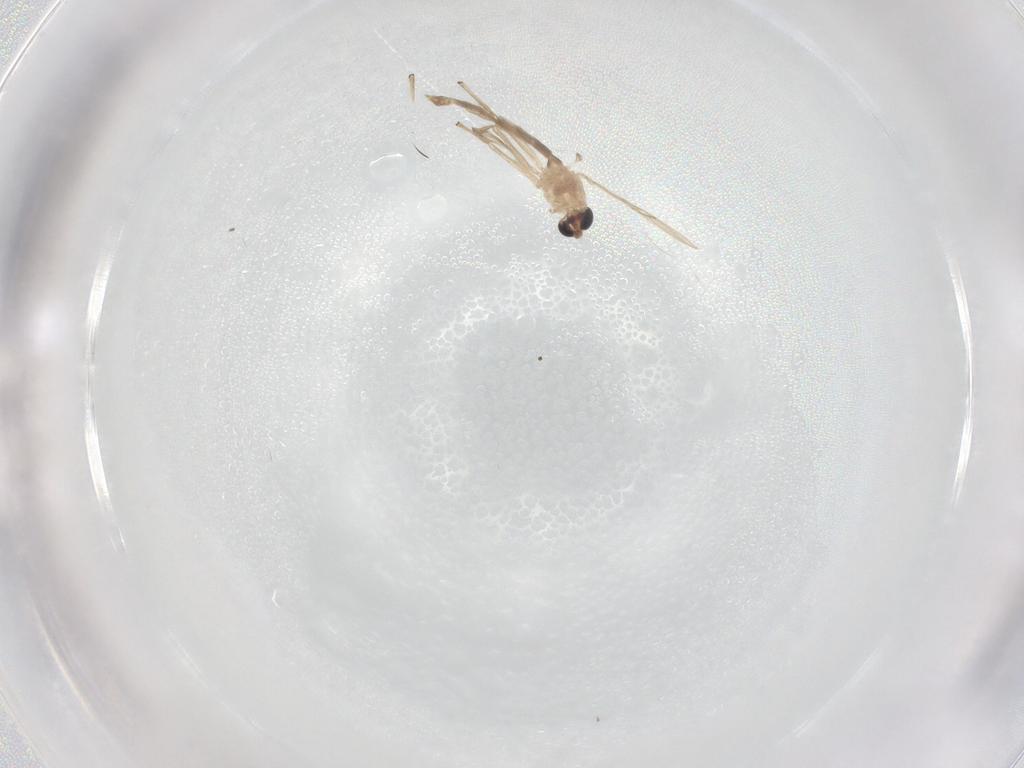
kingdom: Animalia
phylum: Arthropoda
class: Insecta
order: Diptera
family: Chironomidae
